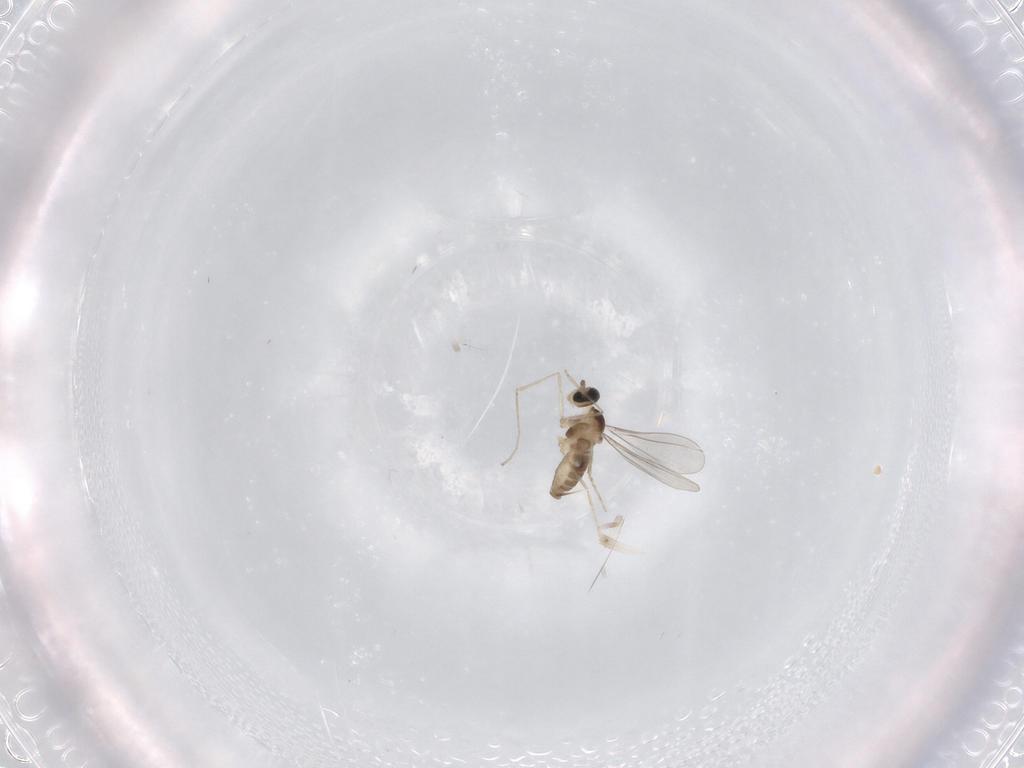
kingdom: Animalia
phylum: Arthropoda
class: Insecta
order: Diptera
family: Cecidomyiidae
